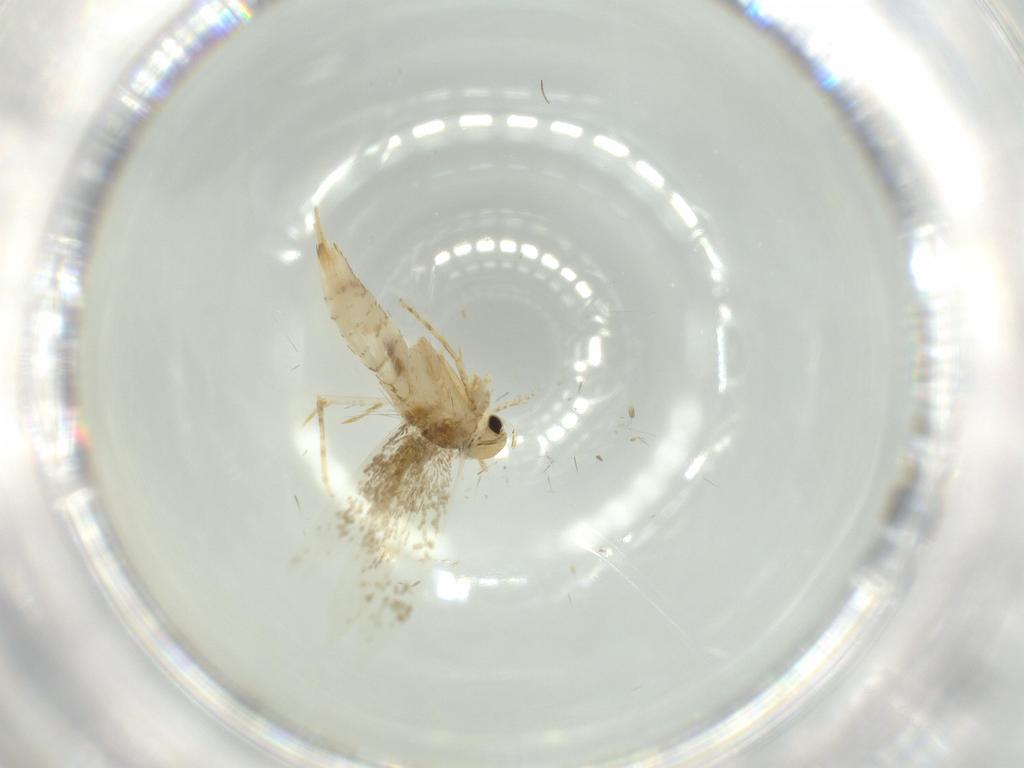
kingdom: Animalia
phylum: Arthropoda
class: Insecta
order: Lepidoptera
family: Tineidae
